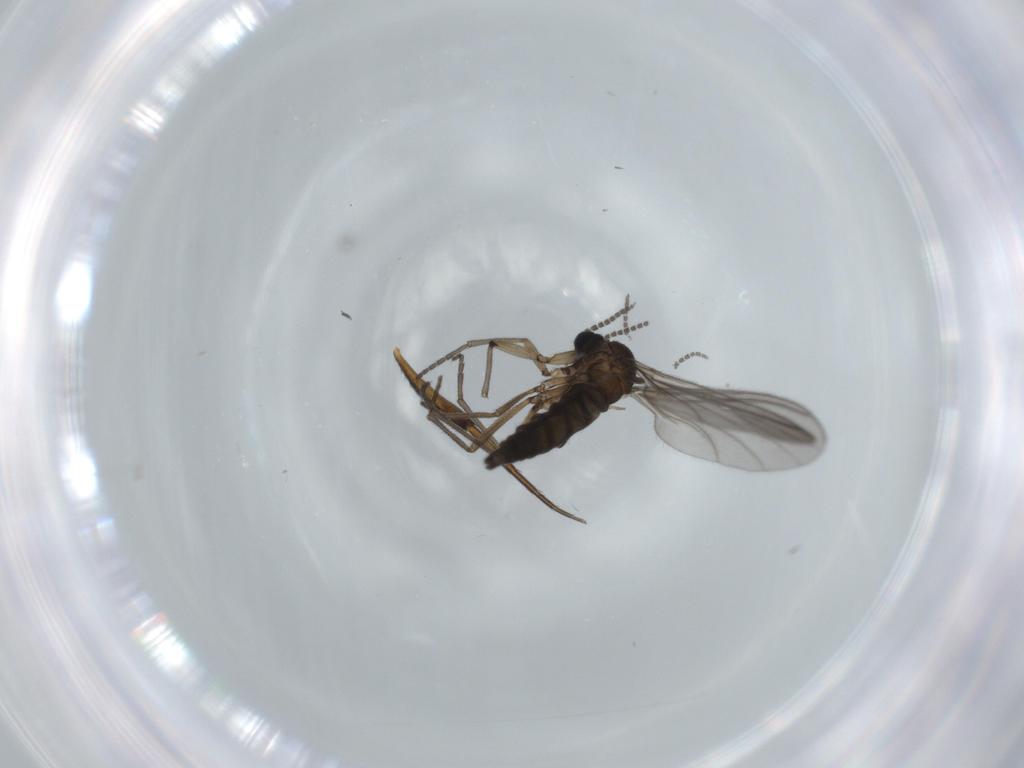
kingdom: Animalia
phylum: Arthropoda
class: Insecta
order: Diptera
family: Sciaridae
